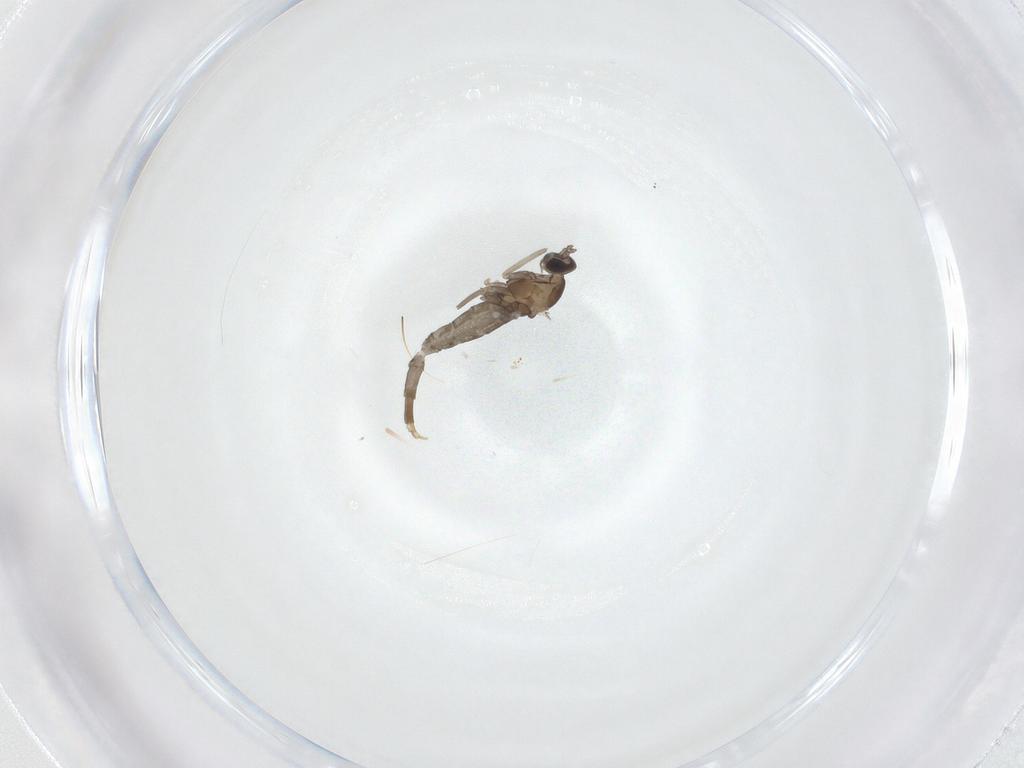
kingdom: Animalia
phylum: Arthropoda
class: Insecta
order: Diptera
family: Cecidomyiidae
